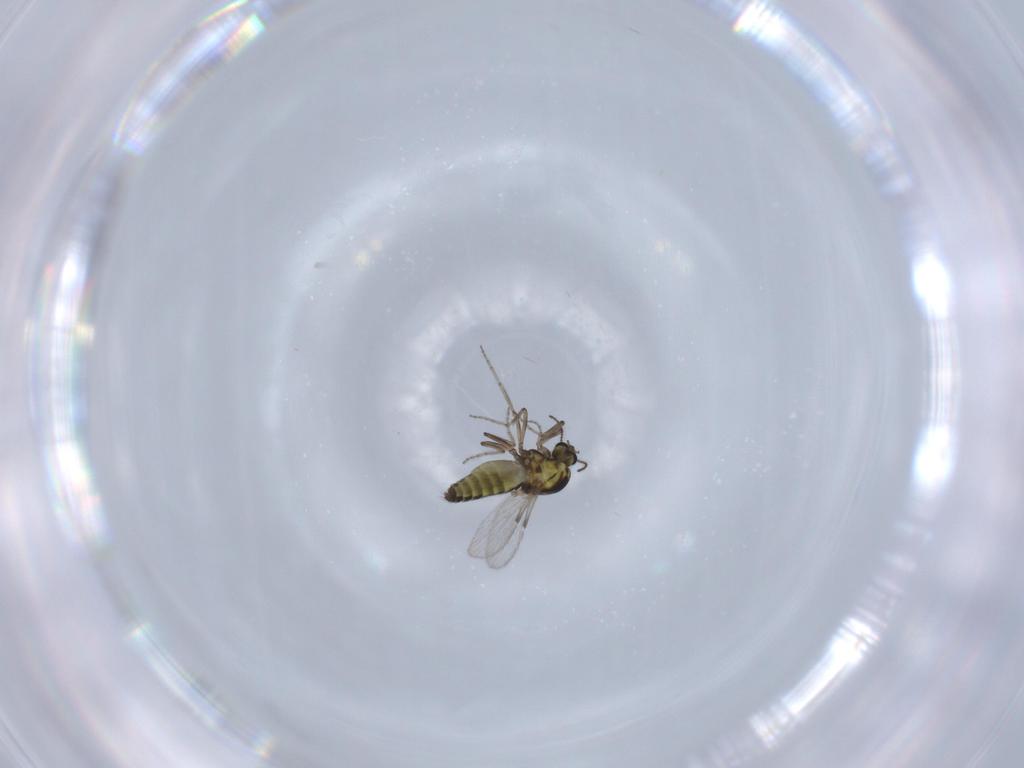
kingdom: Animalia
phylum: Arthropoda
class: Insecta
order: Diptera
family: Ceratopogonidae
